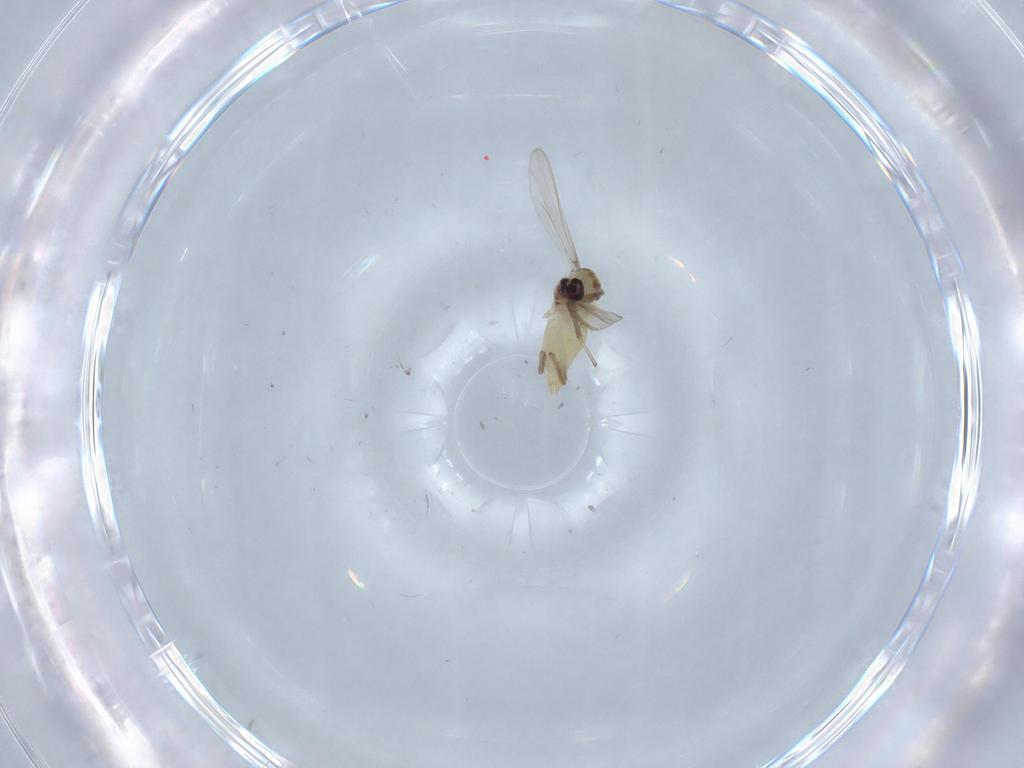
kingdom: Animalia
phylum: Arthropoda
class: Insecta
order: Diptera
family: Chironomidae
